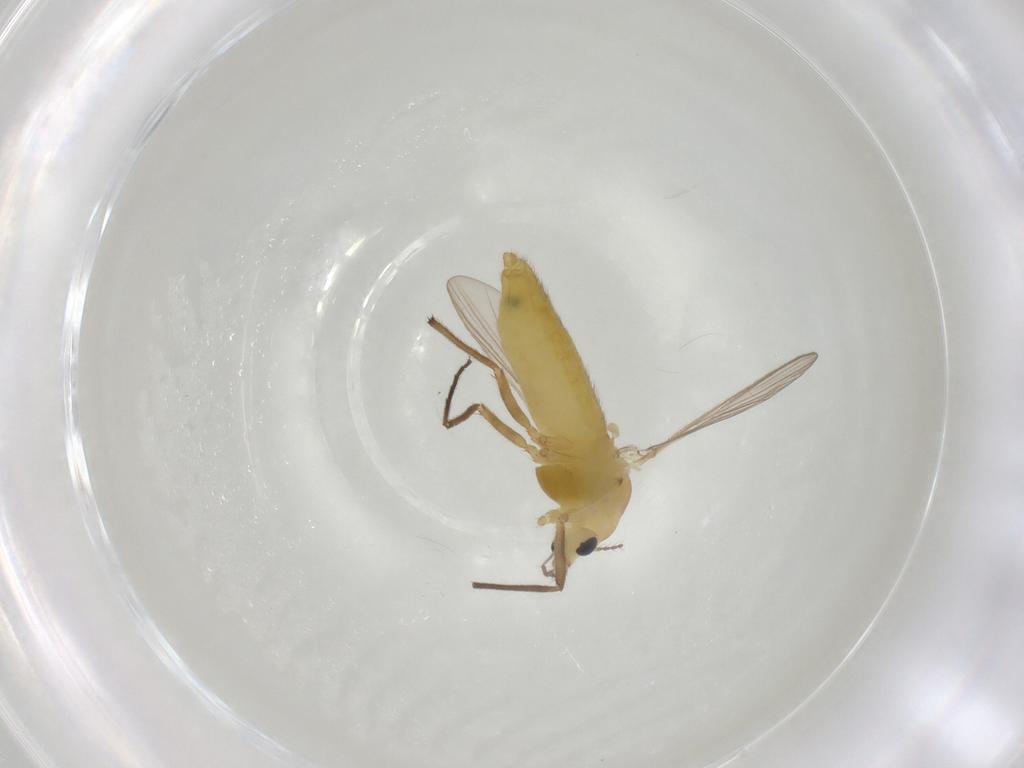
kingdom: Animalia
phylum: Arthropoda
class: Insecta
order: Diptera
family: Chironomidae
